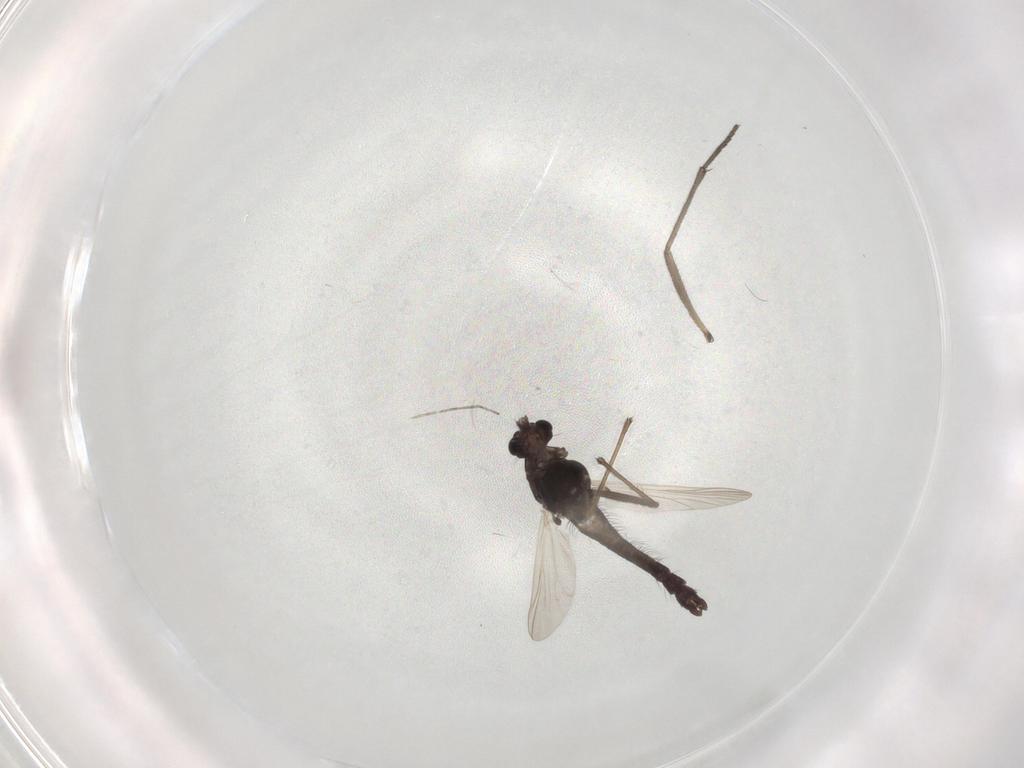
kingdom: Animalia
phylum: Arthropoda
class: Insecta
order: Diptera
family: Chironomidae
